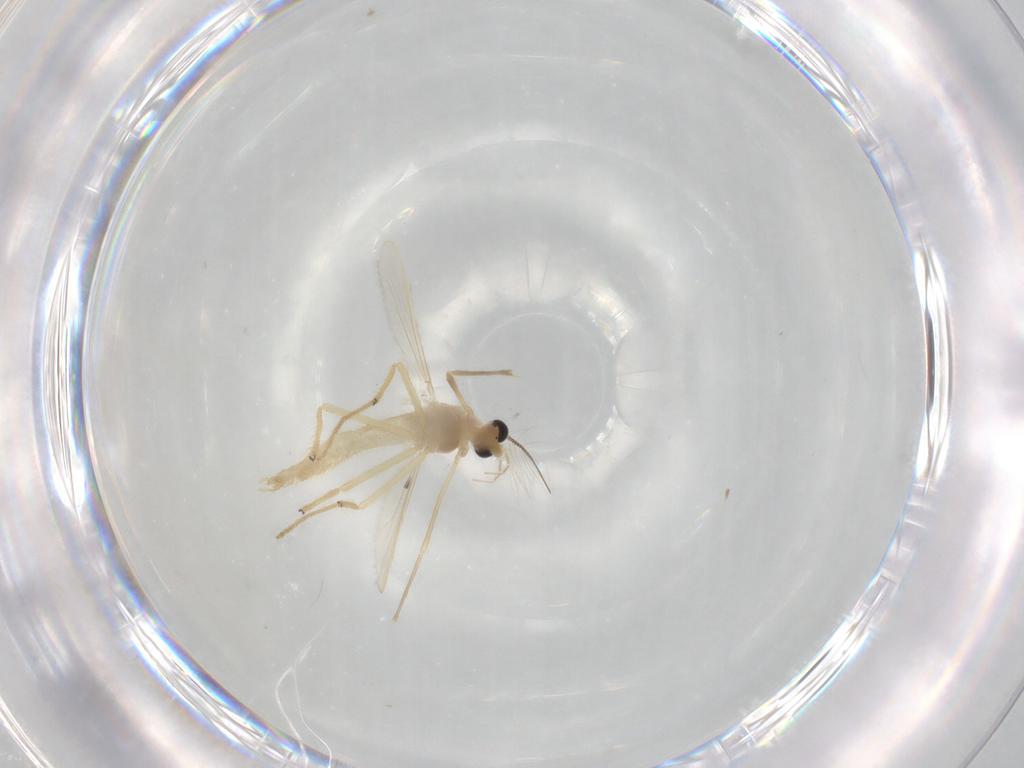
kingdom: Animalia
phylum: Arthropoda
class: Insecta
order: Diptera
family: Chironomidae
